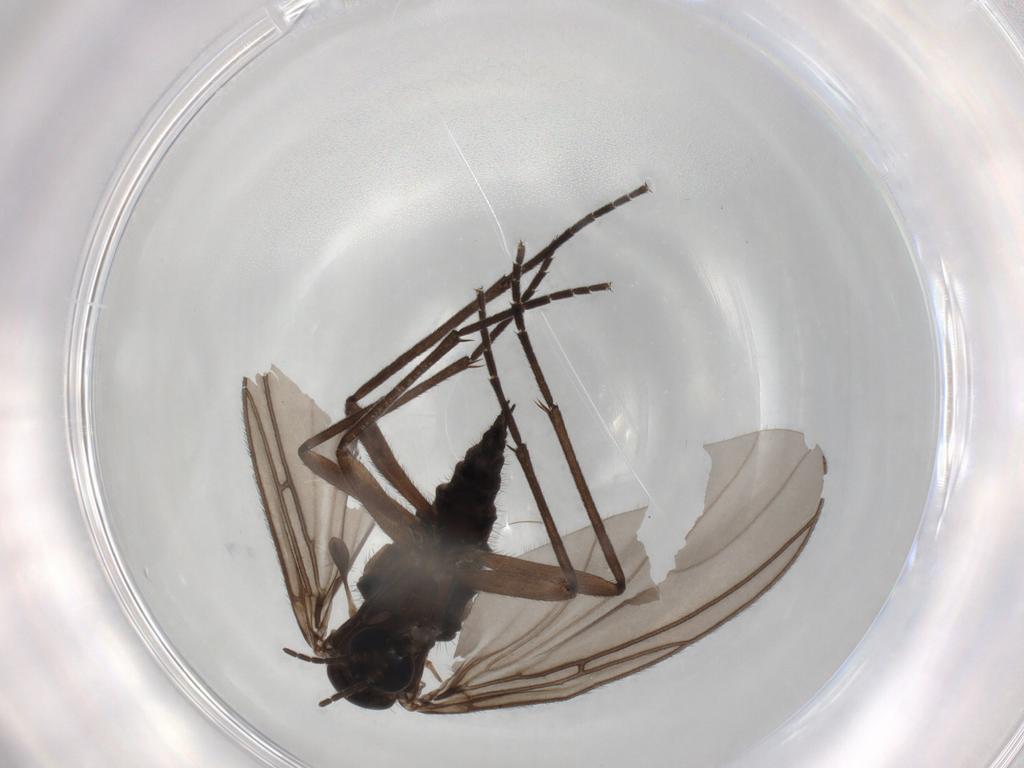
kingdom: Animalia
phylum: Arthropoda
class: Insecta
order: Diptera
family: Sciaridae
